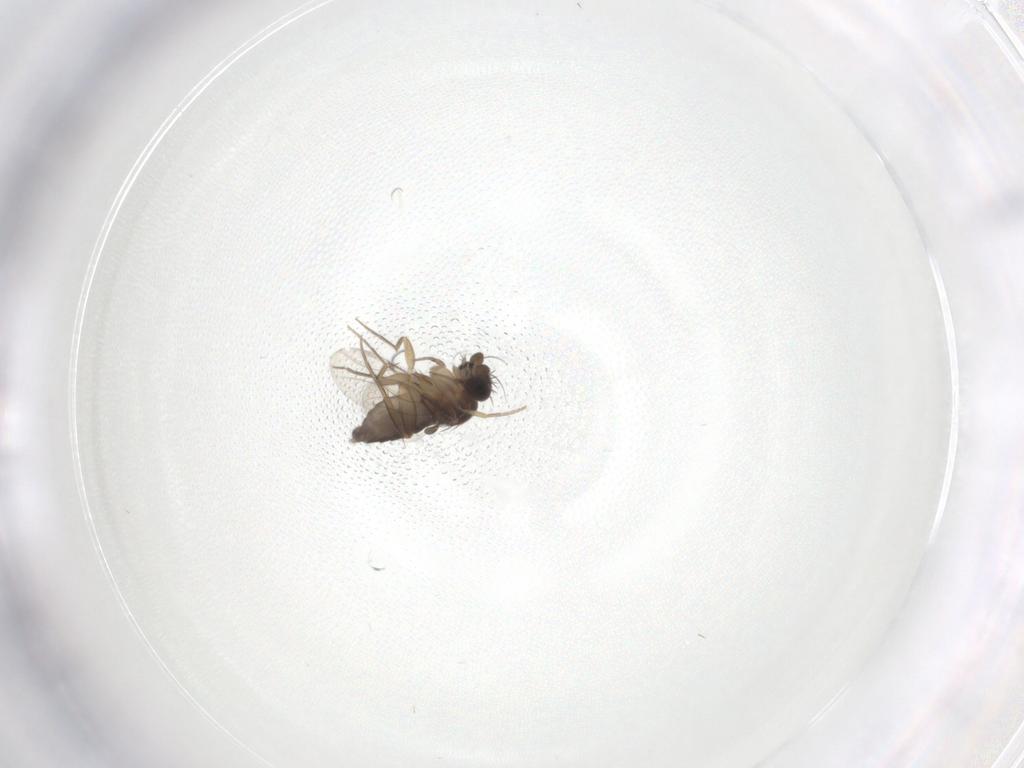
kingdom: Animalia
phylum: Arthropoda
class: Insecta
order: Diptera
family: Phoridae
